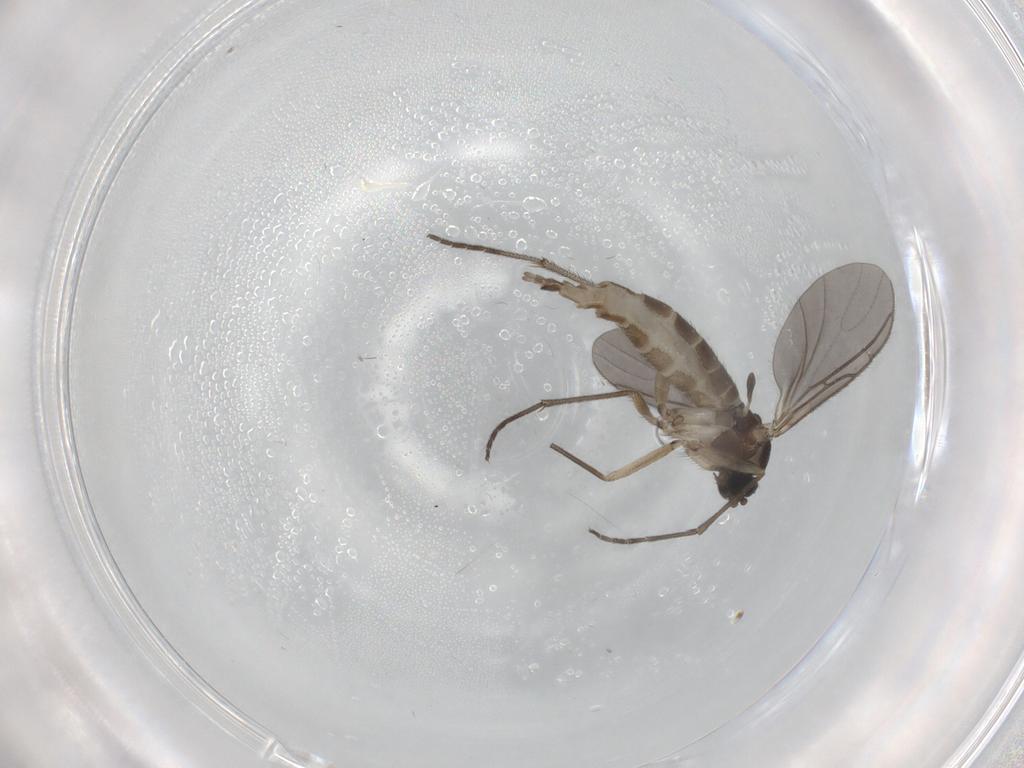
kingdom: Animalia
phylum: Arthropoda
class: Insecta
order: Diptera
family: Sciaridae
